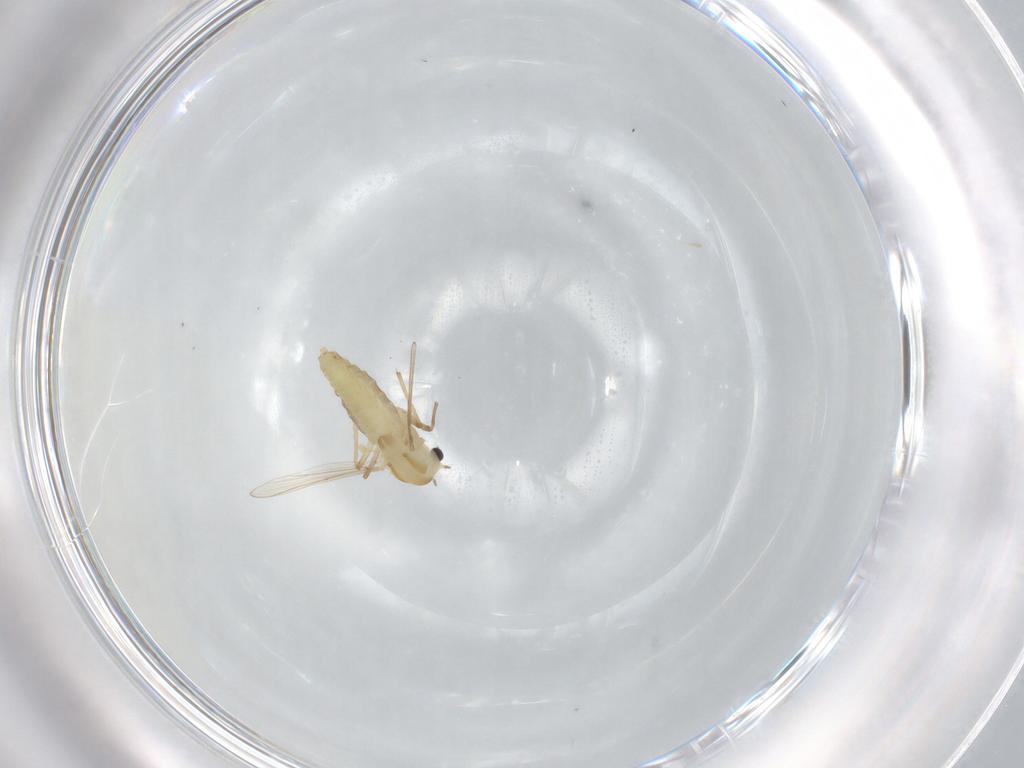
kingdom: Animalia
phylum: Arthropoda
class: Insecta
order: Diptera
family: Chironomidae
